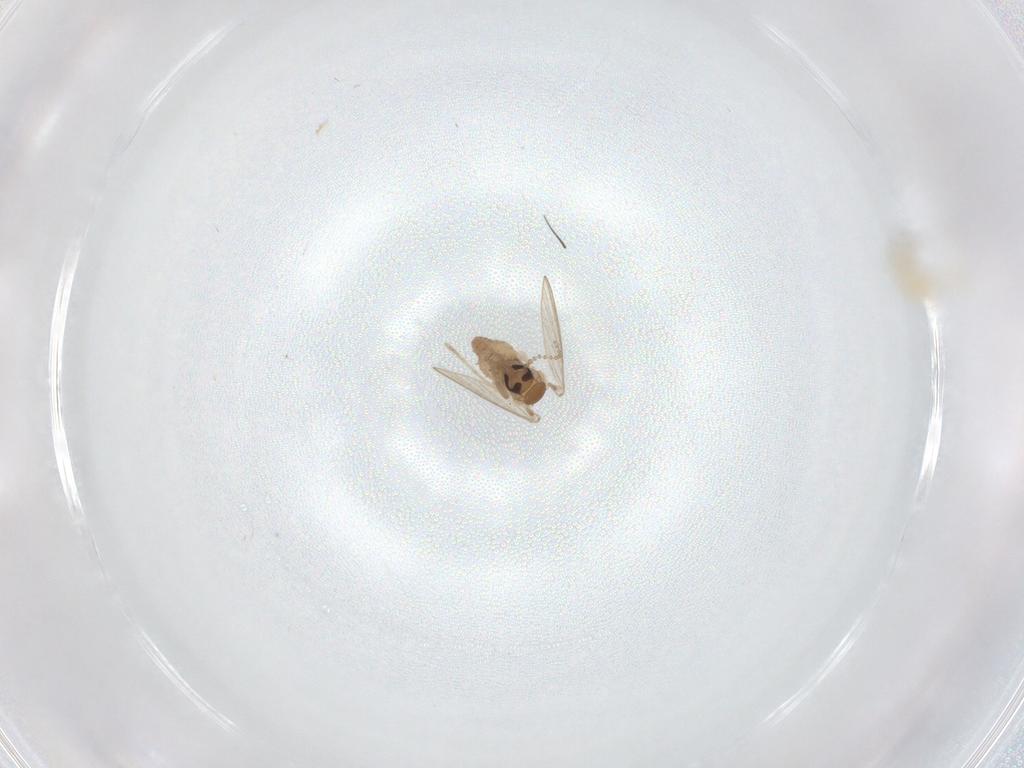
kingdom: Animalia
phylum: Arthropoda
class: Insecta
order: Diptera
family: Cecidomyiidae
